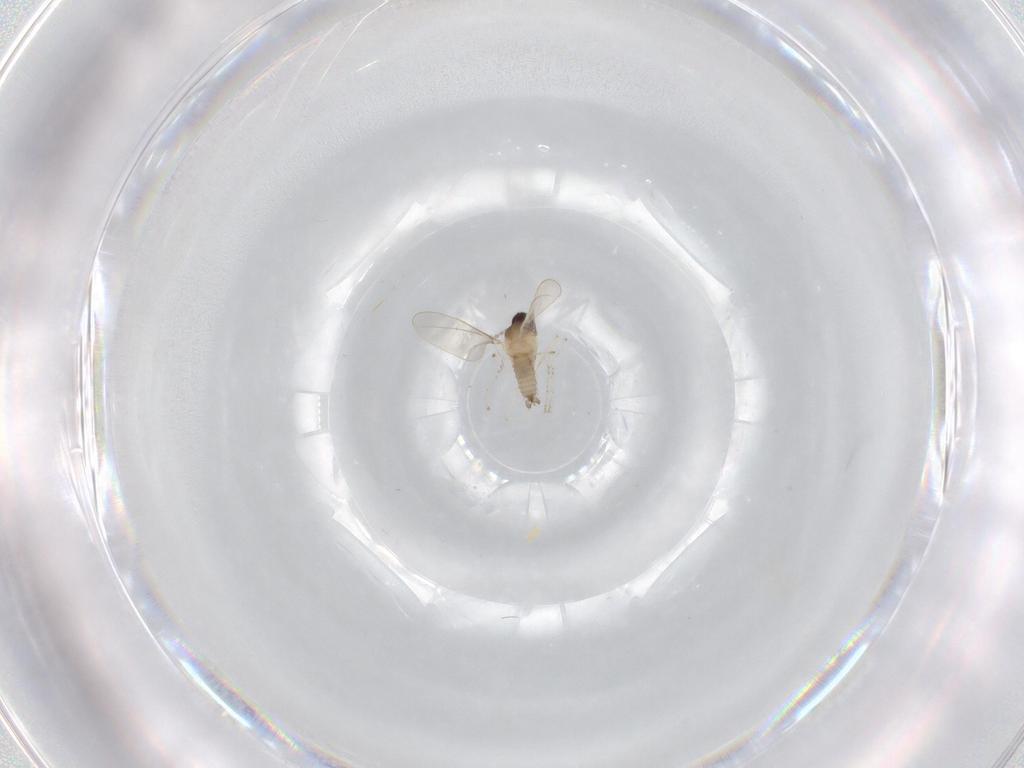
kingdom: Animalia
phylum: Arthropoda
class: Insecta
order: Diptera
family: Cecidomyiidae
